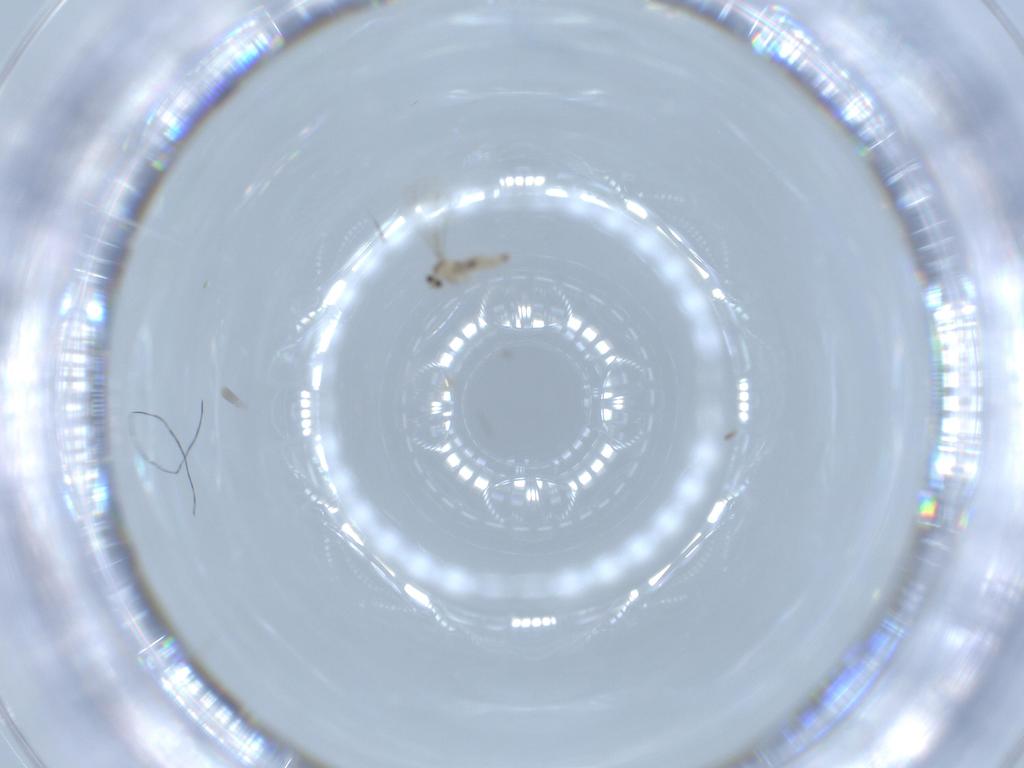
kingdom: Animalia
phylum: Arthropoda
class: Insecta
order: Diptera
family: Cecidomyiidae
